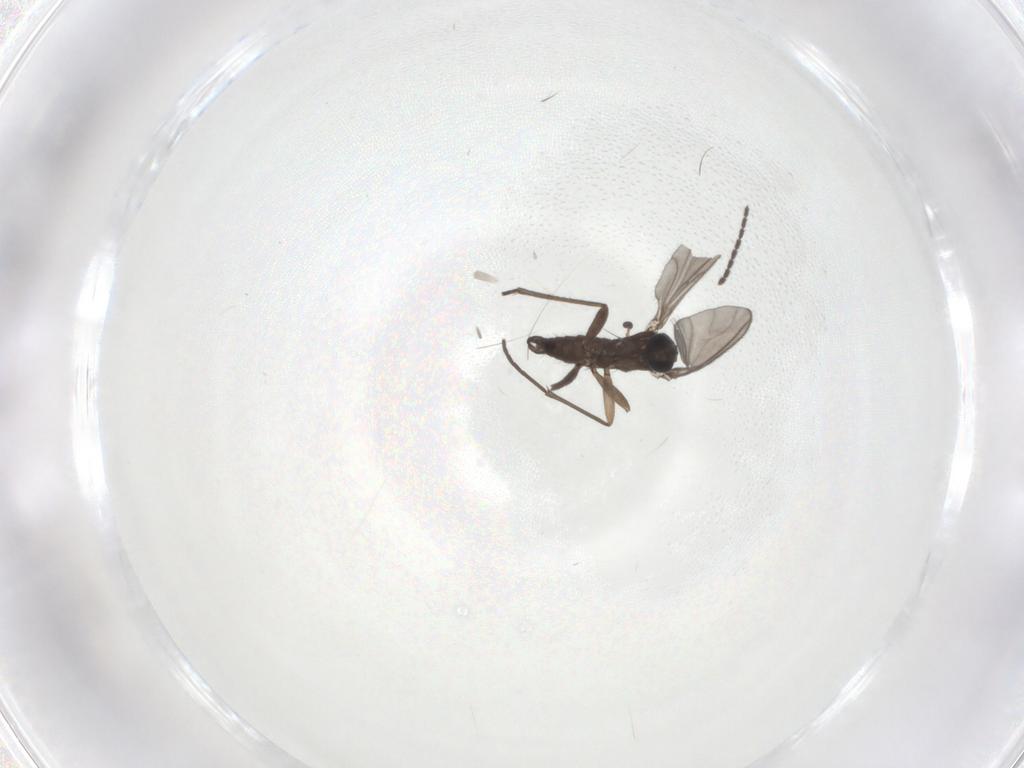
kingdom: Animalia
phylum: Arthropoda
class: Insecta
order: Diptera
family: Sciaridae
